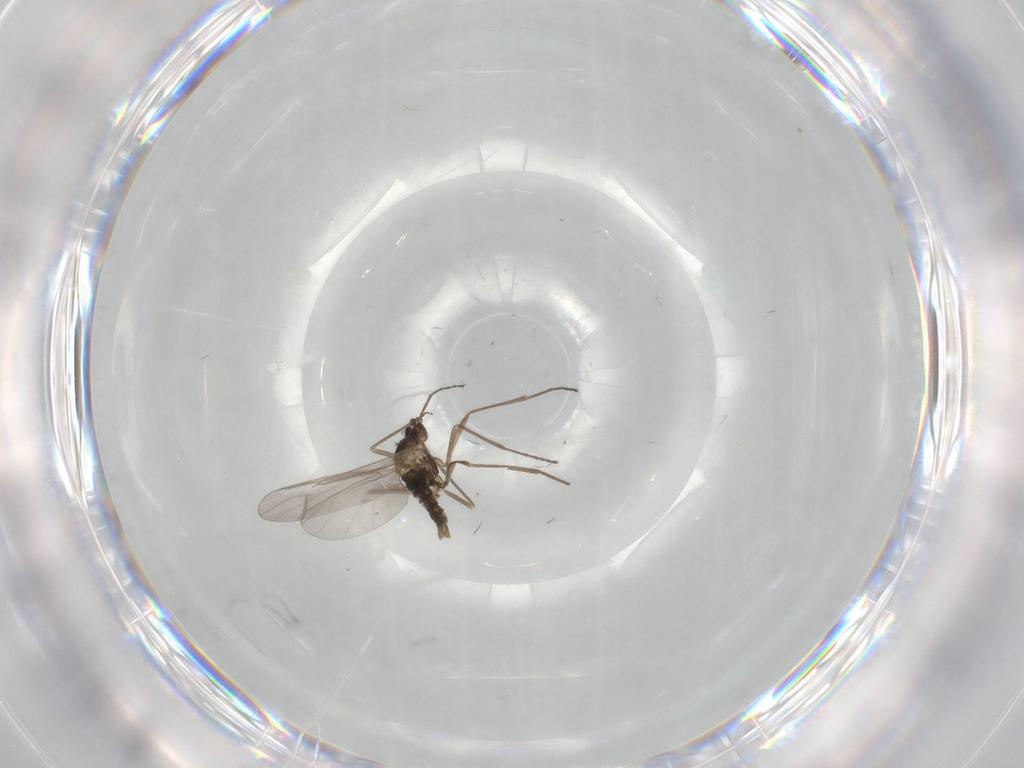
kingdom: Animalia
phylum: Arthropoda
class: Insecta
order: Diptera
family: Cecidomyiidae
